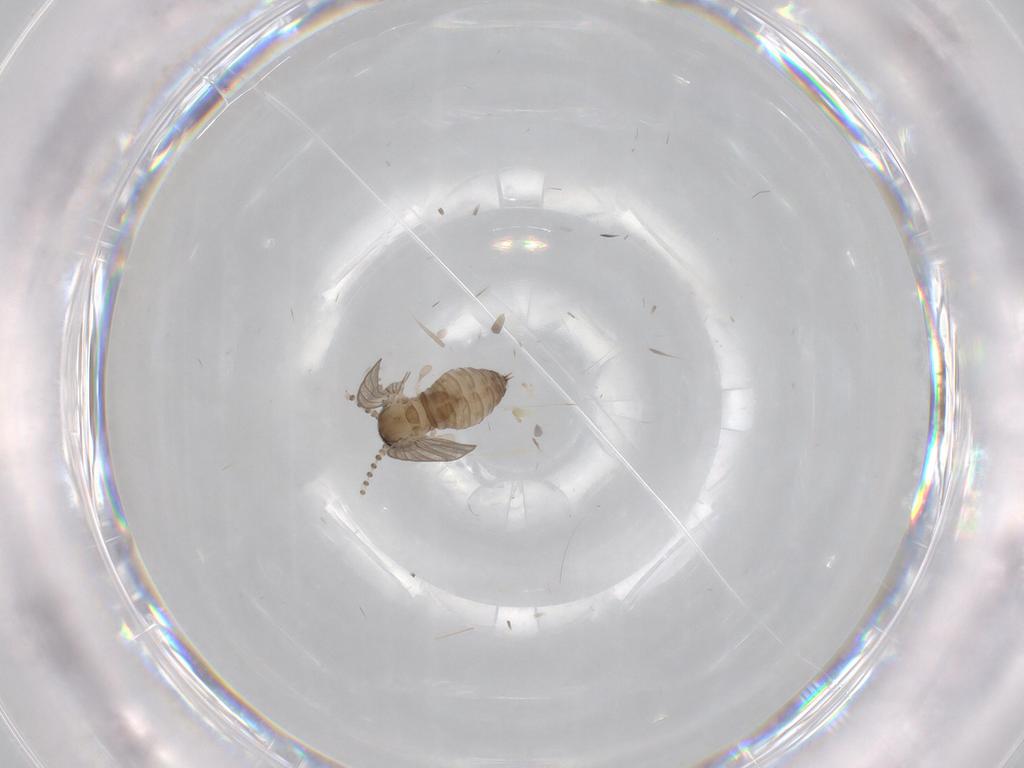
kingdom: Animalia
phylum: Arthropoda
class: Insecta
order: Diptera
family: Psychodidae
